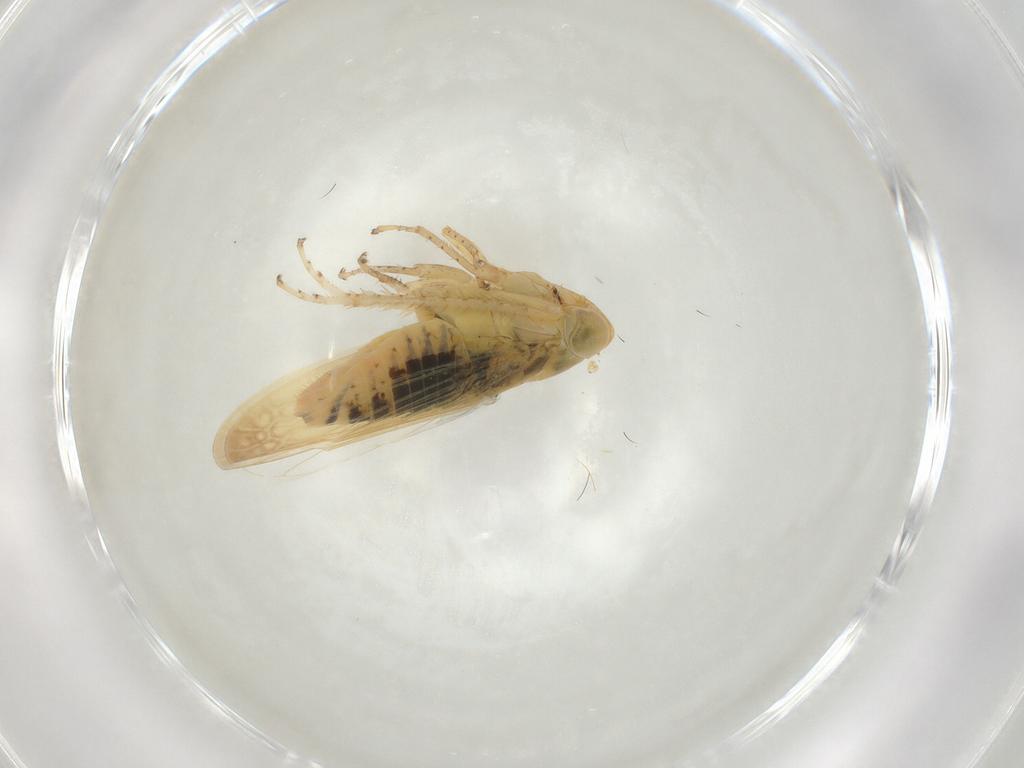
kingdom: Animalia
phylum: Arthropoda
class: Insecta
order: Hemiptera
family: Cicadellidae
